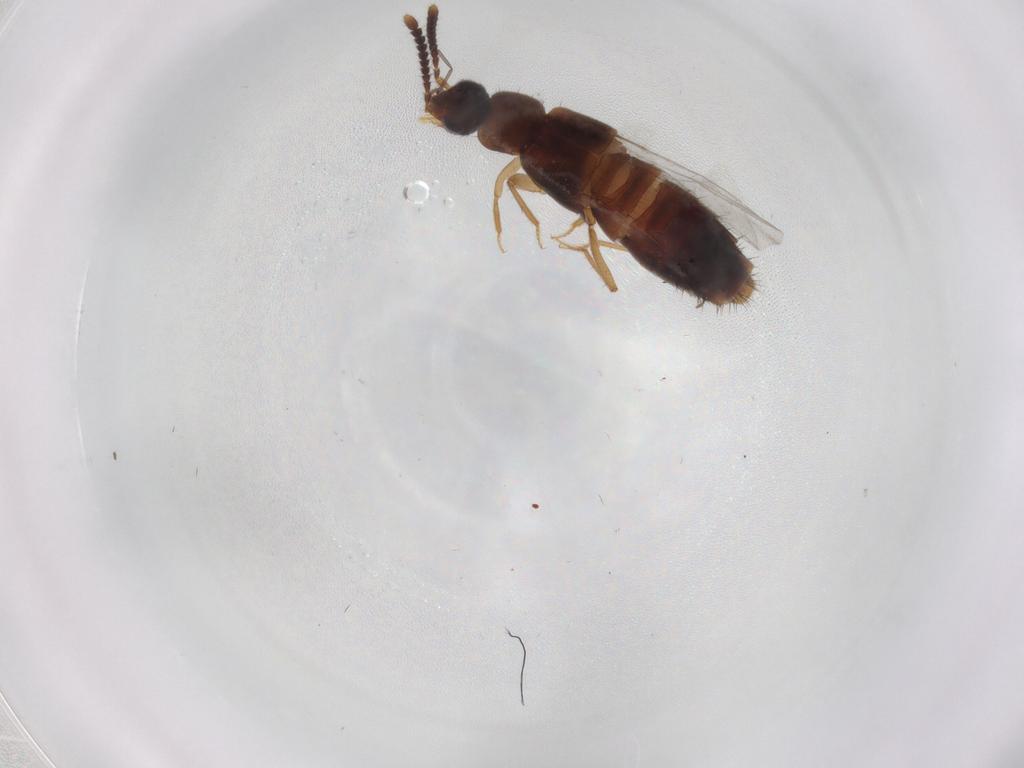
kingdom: Animalia
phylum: Arthropoda
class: Insecta
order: Coleoptera
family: Staphylinidae
